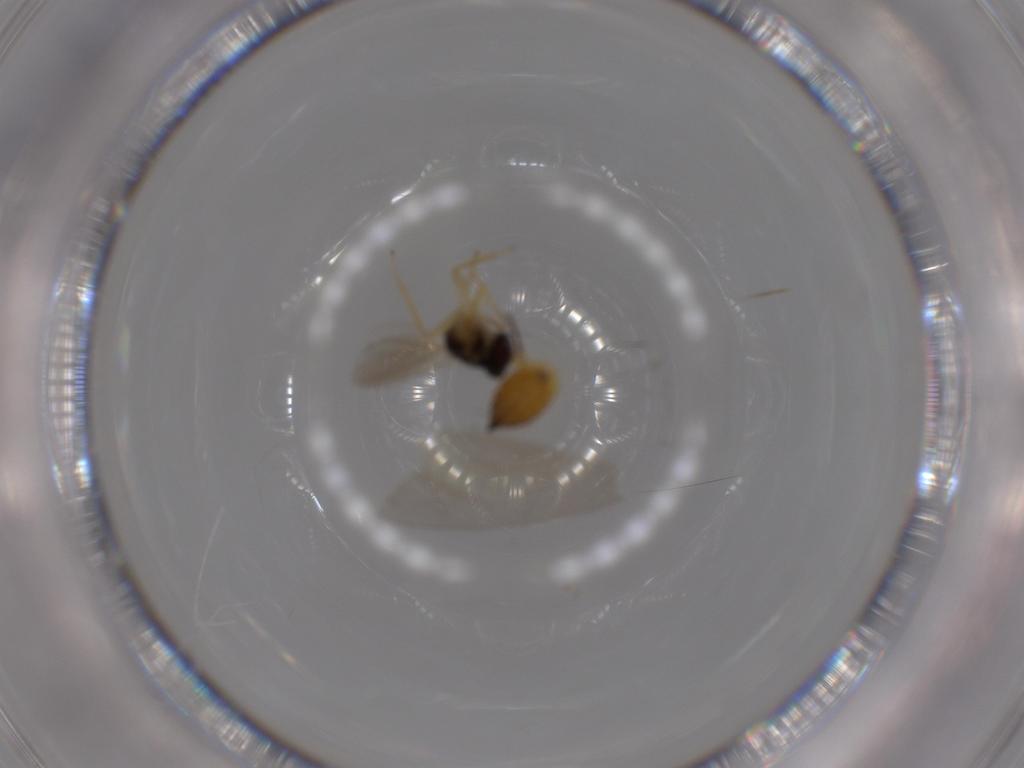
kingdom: Animalia
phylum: Arthropoda
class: Insecta
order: Hymenoptera
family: Eulophidae
